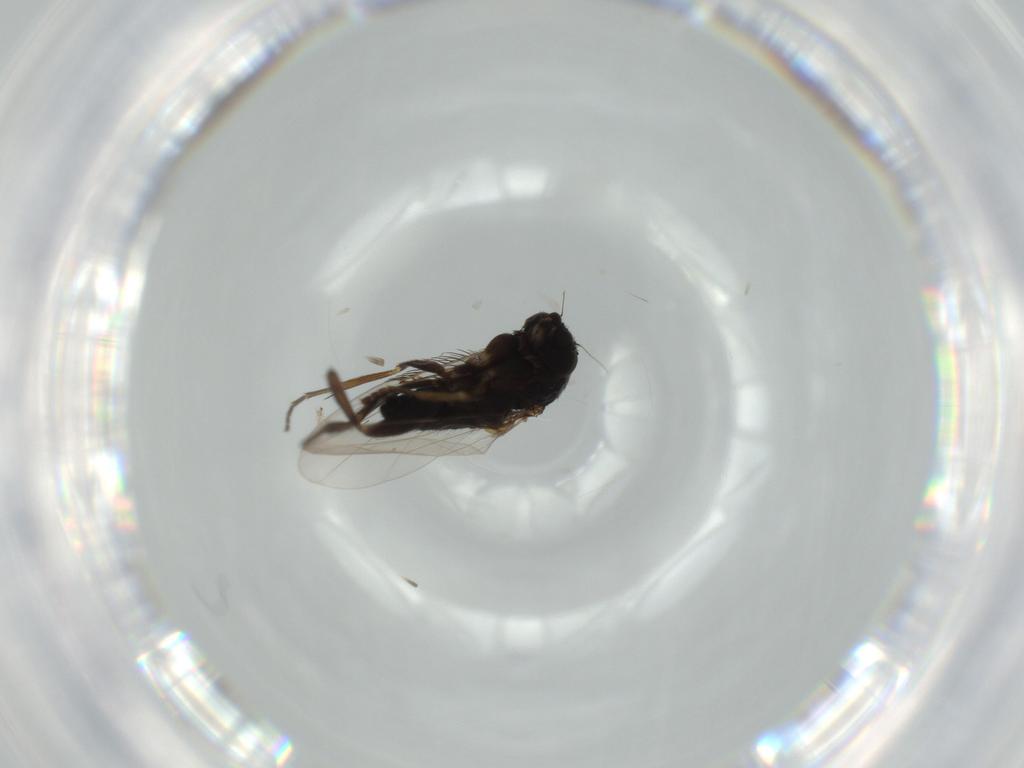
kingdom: Animalia
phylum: Arthropoda
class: Insecta
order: Diptera
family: Phoridae
